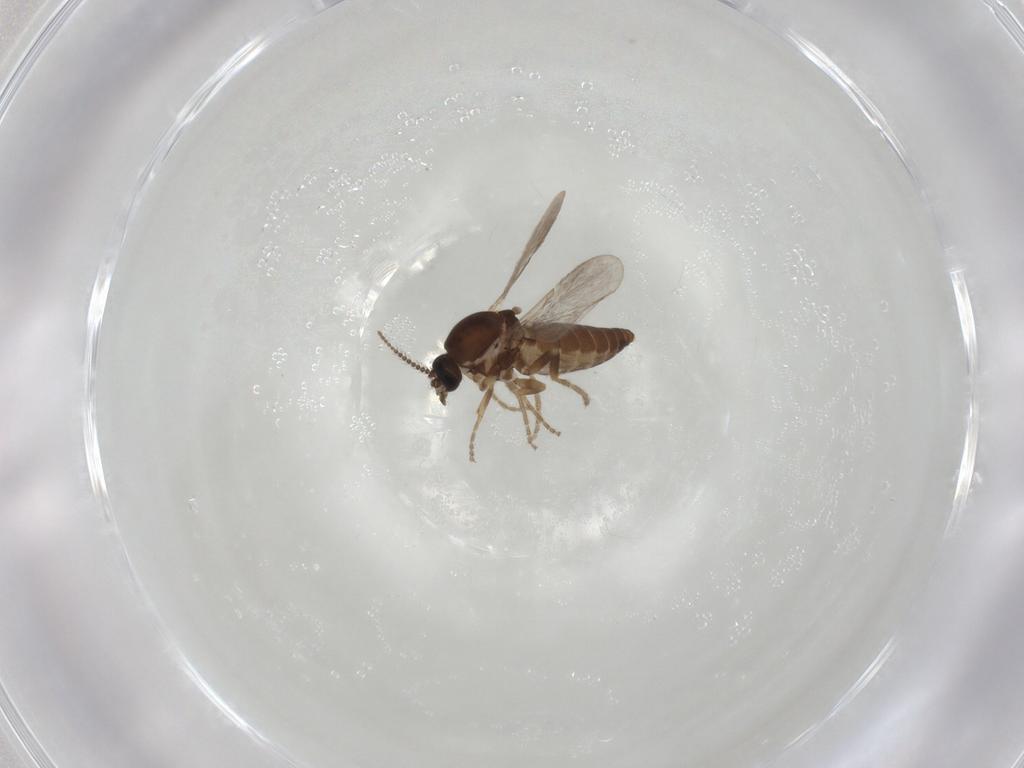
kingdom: Animalia
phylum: Arthropoda
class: Insecta
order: Diptera
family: Ceratopogonidae
